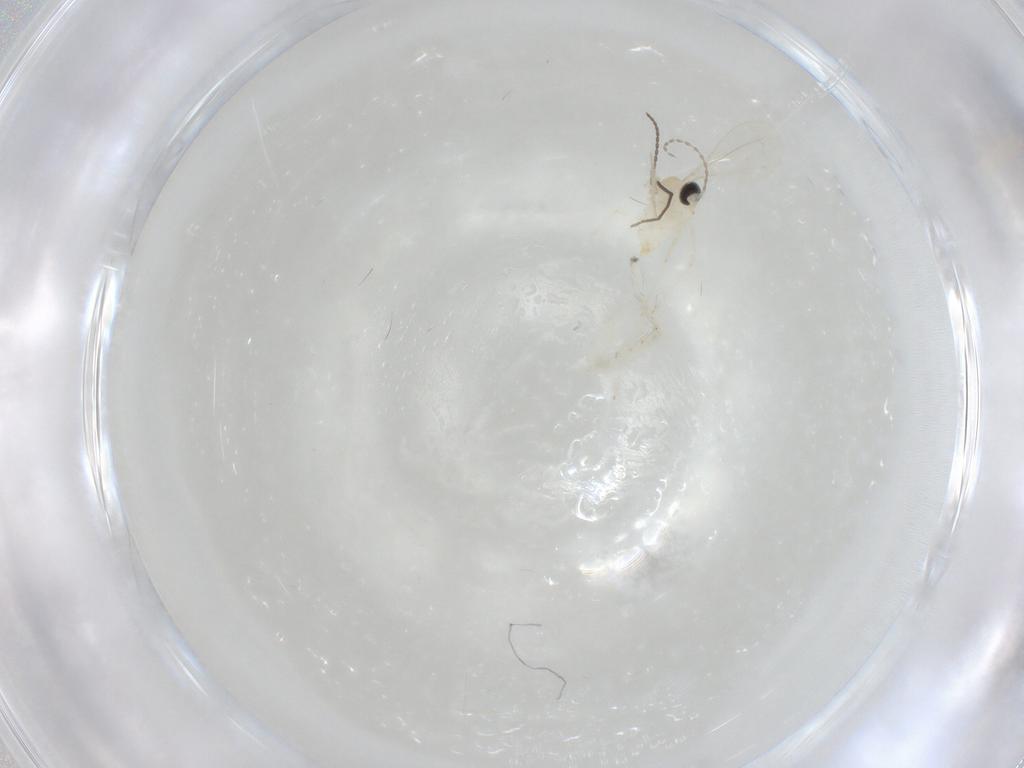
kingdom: Animalia
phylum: Arthropoda
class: Insecta
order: Diptera
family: Cecidomyiidae
